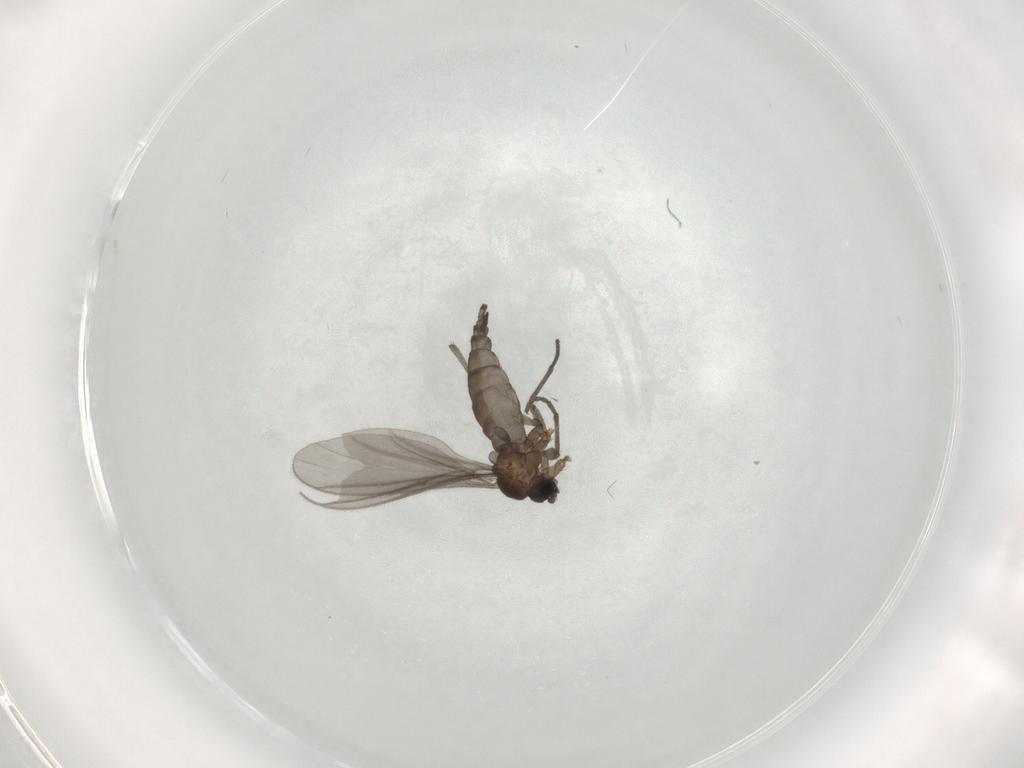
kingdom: Animalia
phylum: Arthropoda
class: Insecta
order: Diptera
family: Sciaridae
